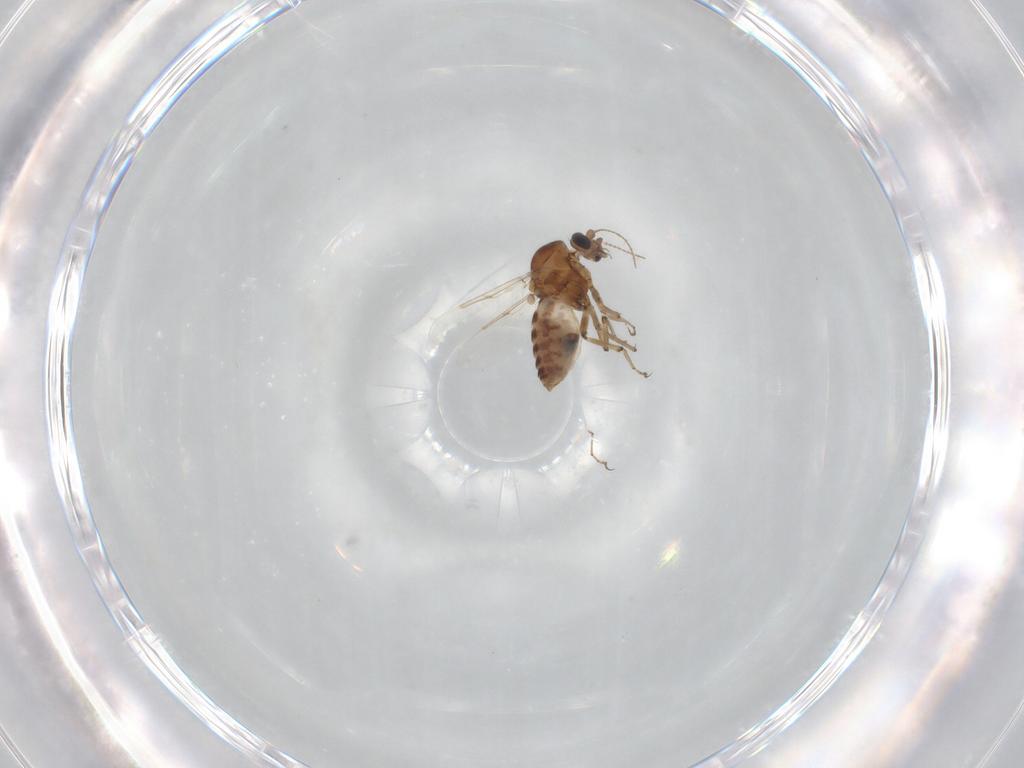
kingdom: Animalia
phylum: Arthropoda
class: Insecta
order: Diptera
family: Ceratopogonidae
